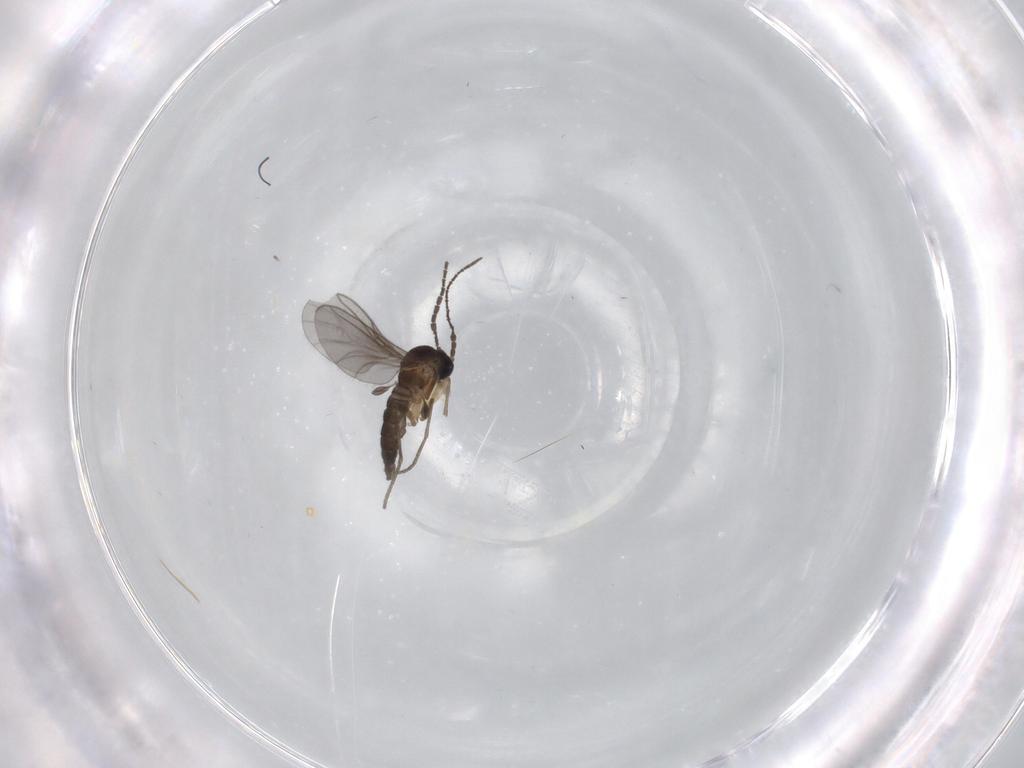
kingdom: Animalia
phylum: Arthropoda
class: Insecta
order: Diptera
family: Sciaridae
